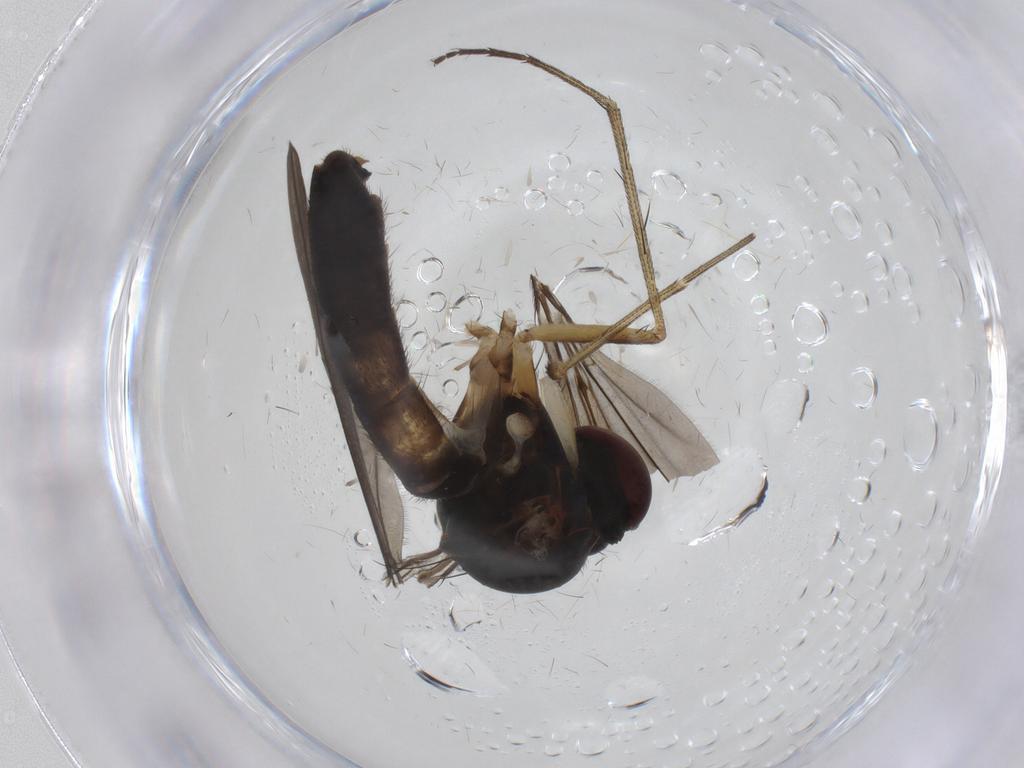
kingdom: Animalia
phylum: Arthropoda
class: Insecta
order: Diptera
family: Dolichopodidae
